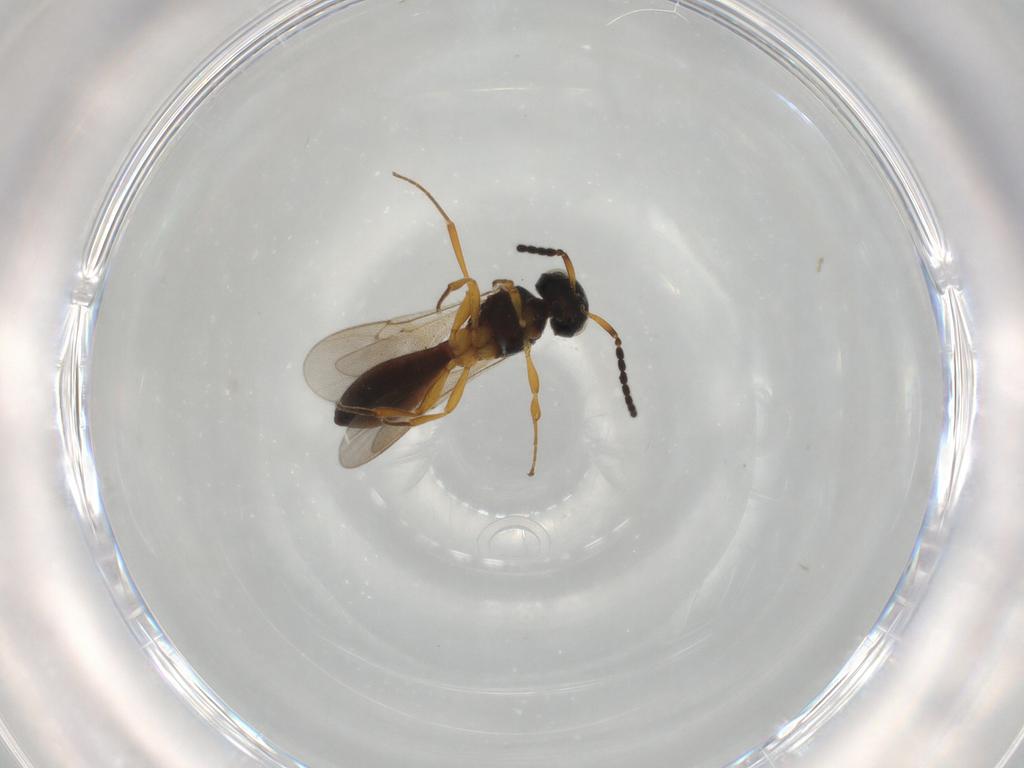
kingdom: Animalia
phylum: Arthropoda
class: Insecta
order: Hymenoptera
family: Scelionidae
